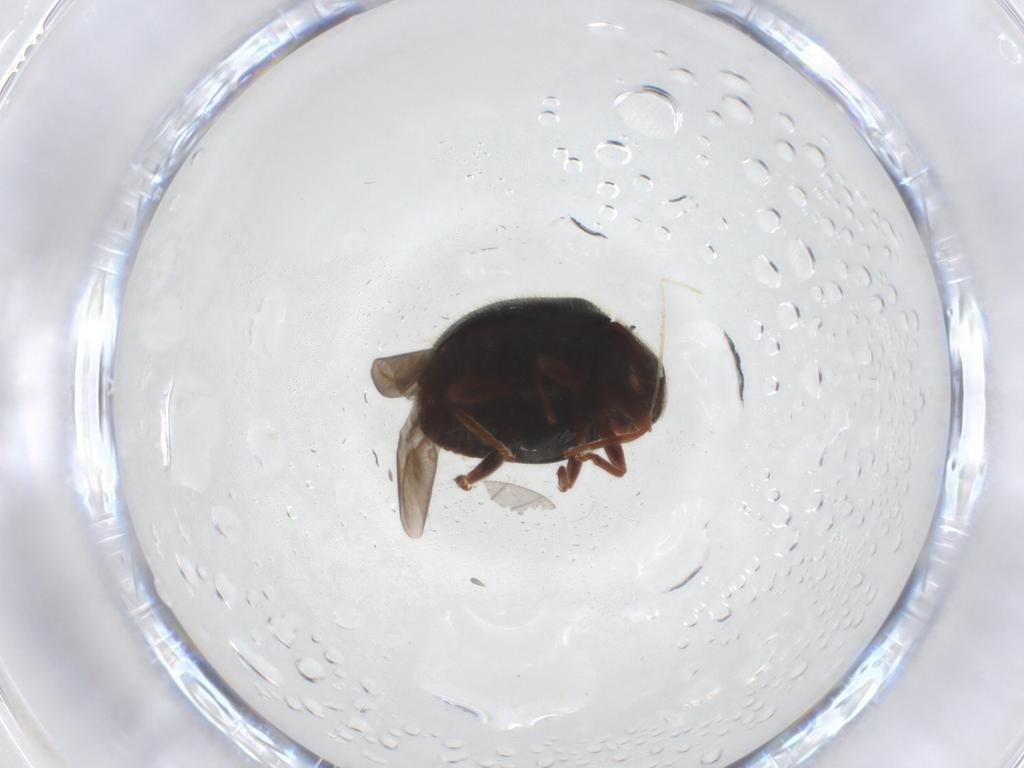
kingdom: Animalia
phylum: Arthropoda
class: Insecta
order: Coleoptera
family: Coccinellidae
